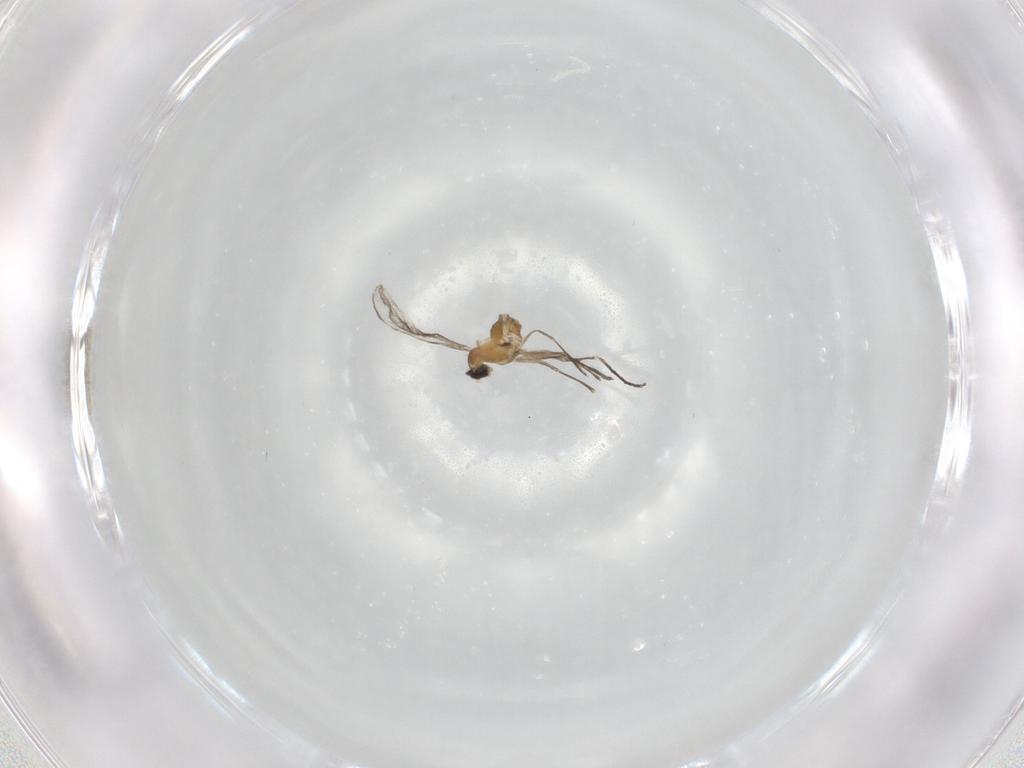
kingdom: Animalia
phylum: Arthropoda
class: Insecta
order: Diptera
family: Cecidomyiidae
